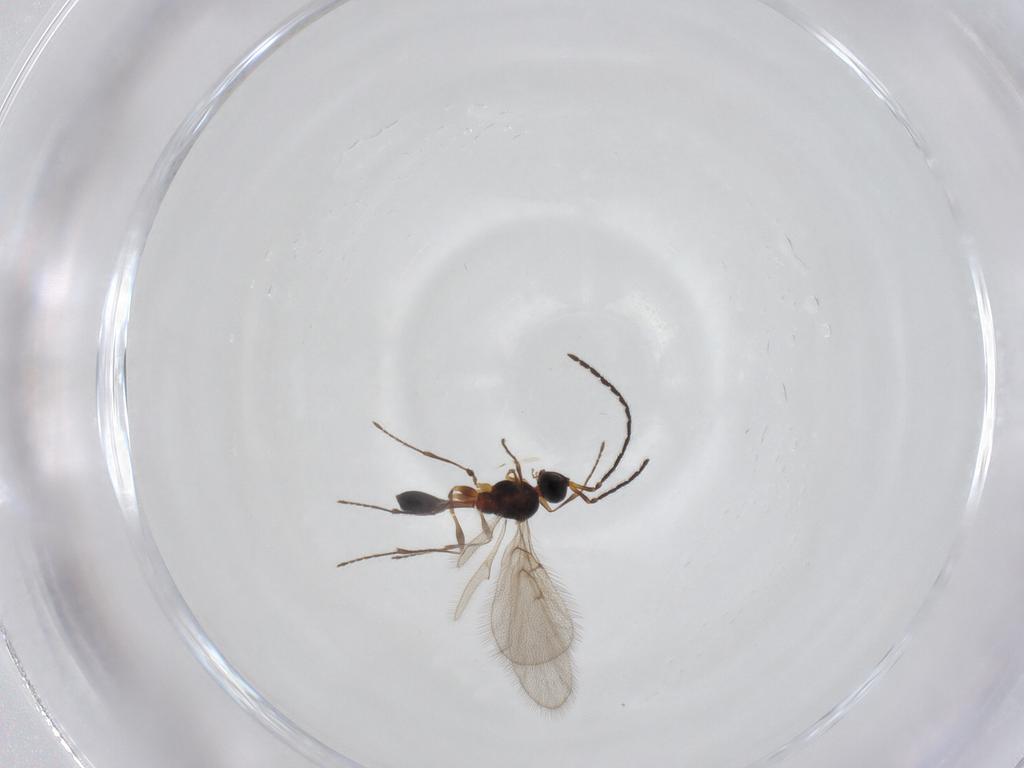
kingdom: Animalia
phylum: Arthropoda
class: Insecta
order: Hymenoptera
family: Diapriidae
